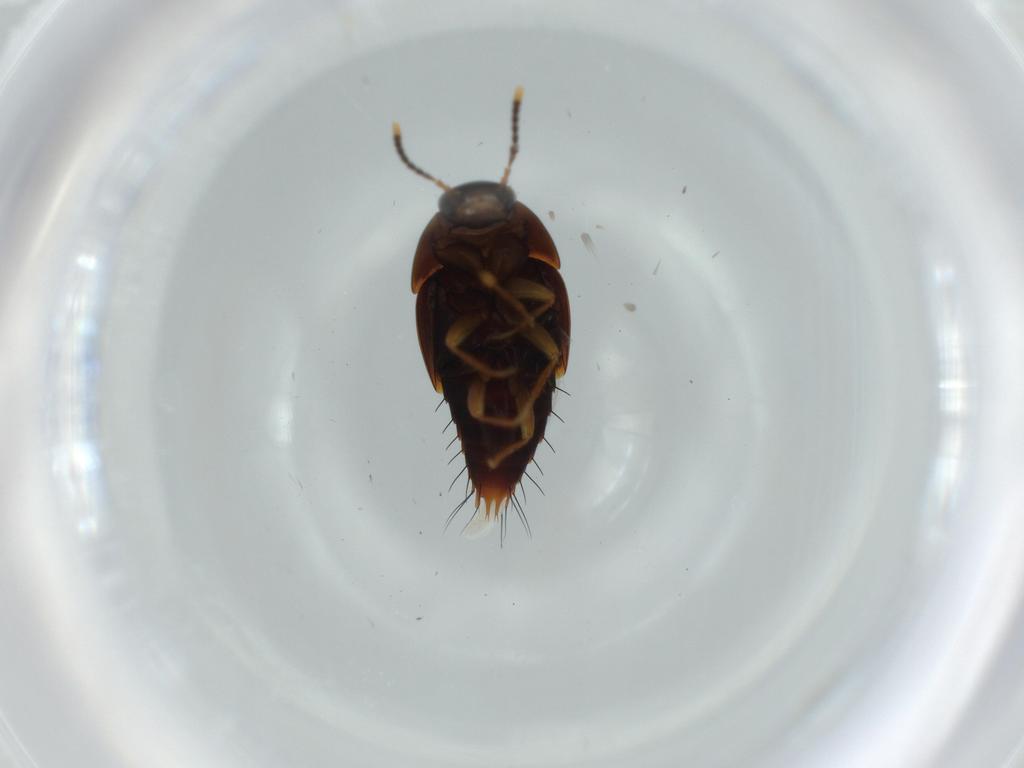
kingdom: Animalia
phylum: Arthropoda
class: Insecta
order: Coleoptera
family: Staphylinidae
